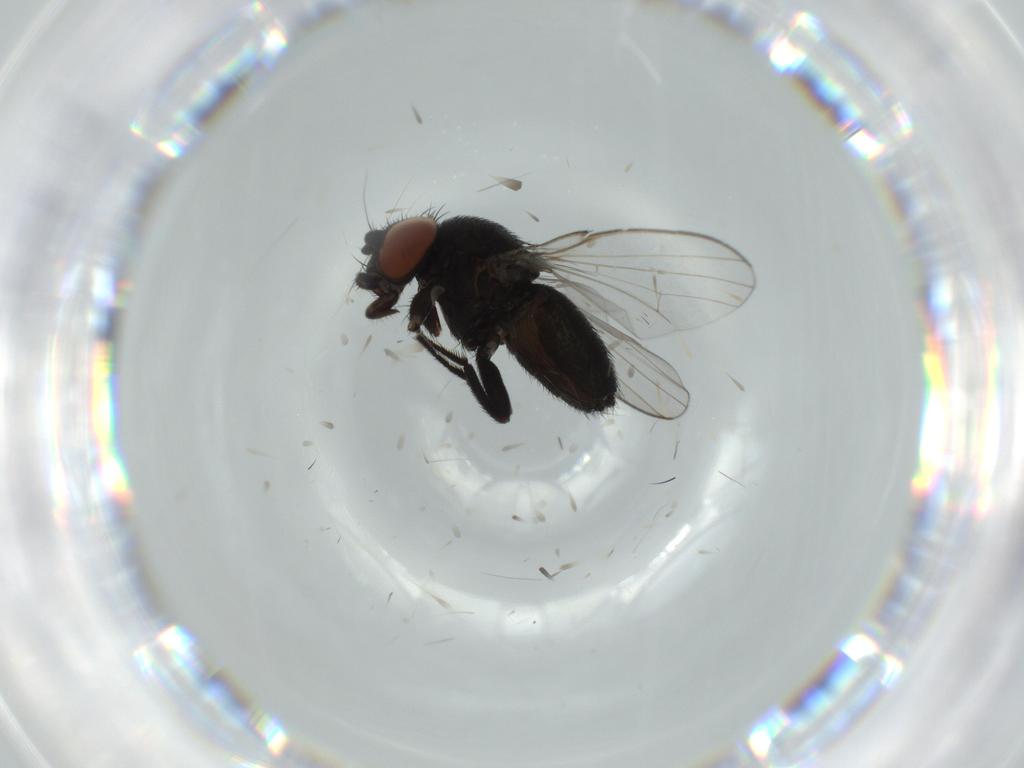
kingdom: Animalia
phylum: Arthropoda
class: Insecta
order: Diptera
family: Milichiidae
